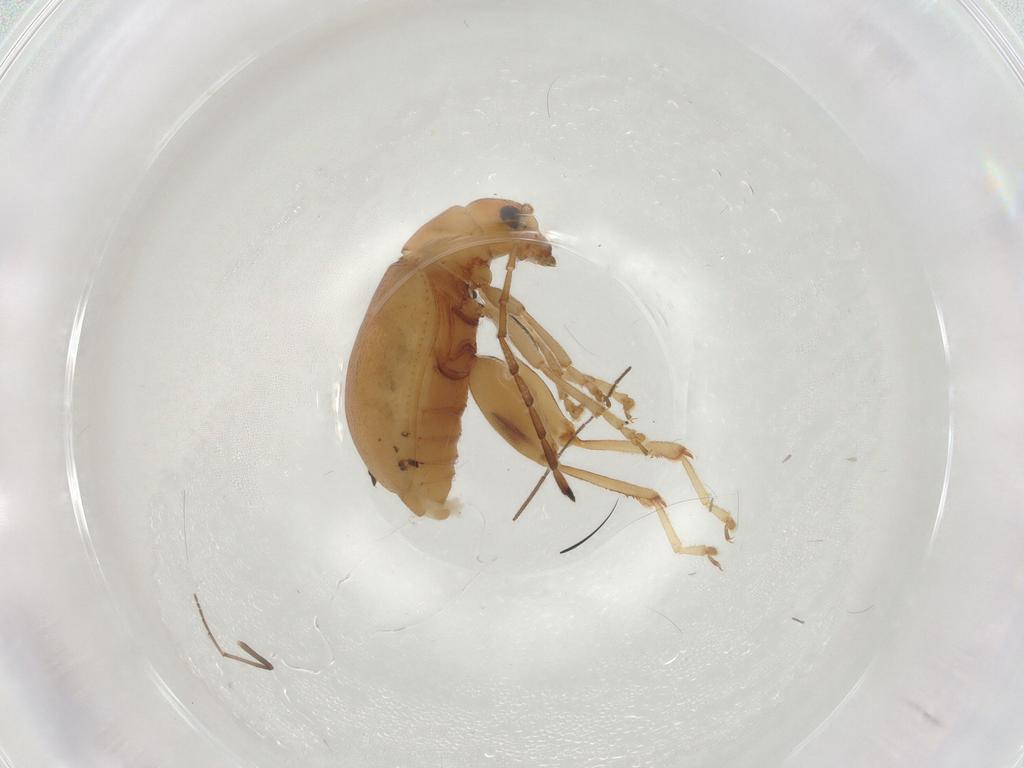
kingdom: Animalia
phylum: Arthropoda
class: Insecta
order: Coleoptera
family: Chrysomelidae
